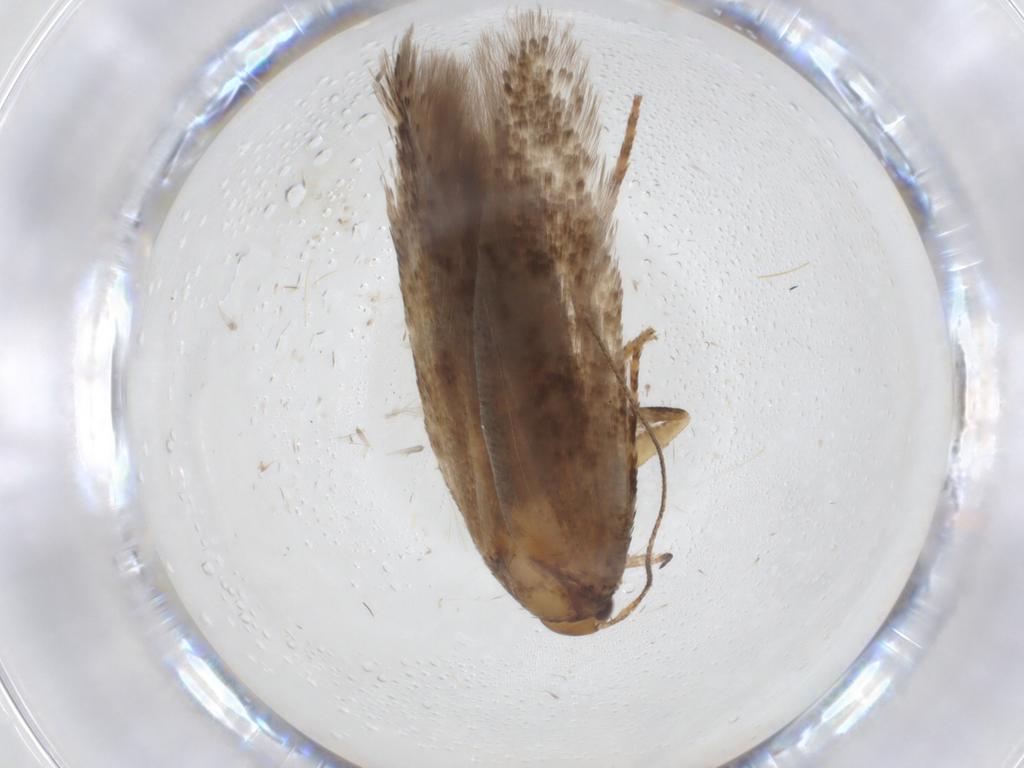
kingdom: Animalia
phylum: Arthropoda
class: Insecta
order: Lepidoptera
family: Gelechiidae
